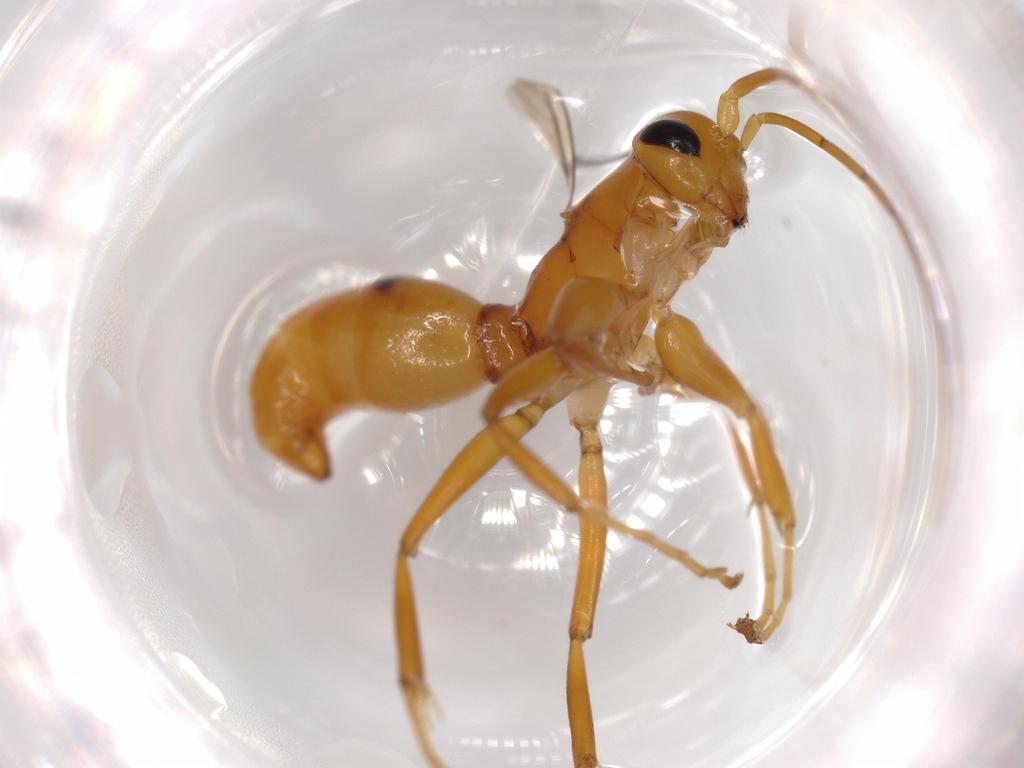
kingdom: Animalia
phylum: Arthropoda
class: Insecta
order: Hymenoptera
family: Rhopalosomatidae
